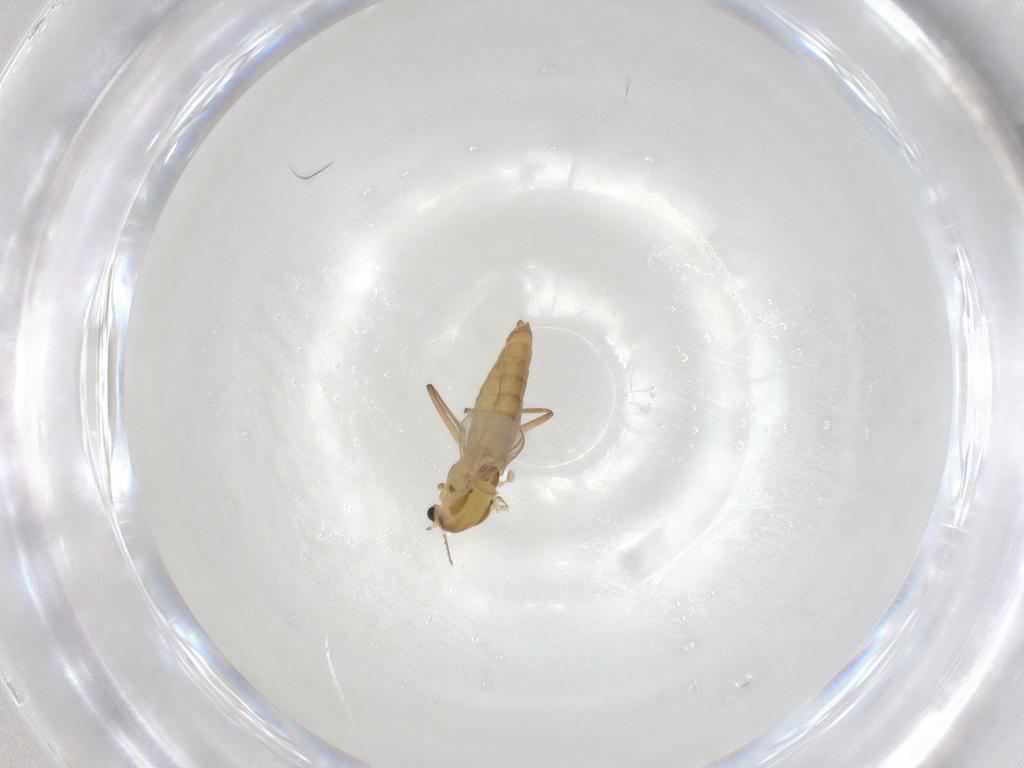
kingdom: Animalia
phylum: Arthropoda
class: Insecta
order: Diptera
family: Chironomidae
